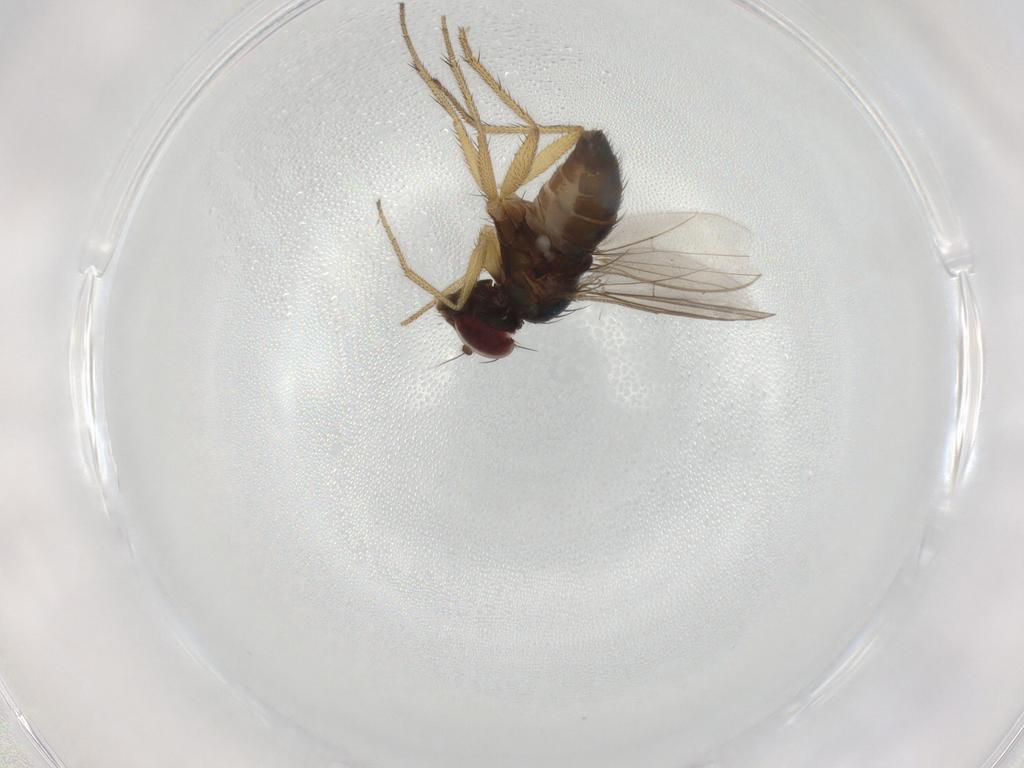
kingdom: Animalia
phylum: Arthropoda
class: Insecta
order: Diptera
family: Dolichopodidae
